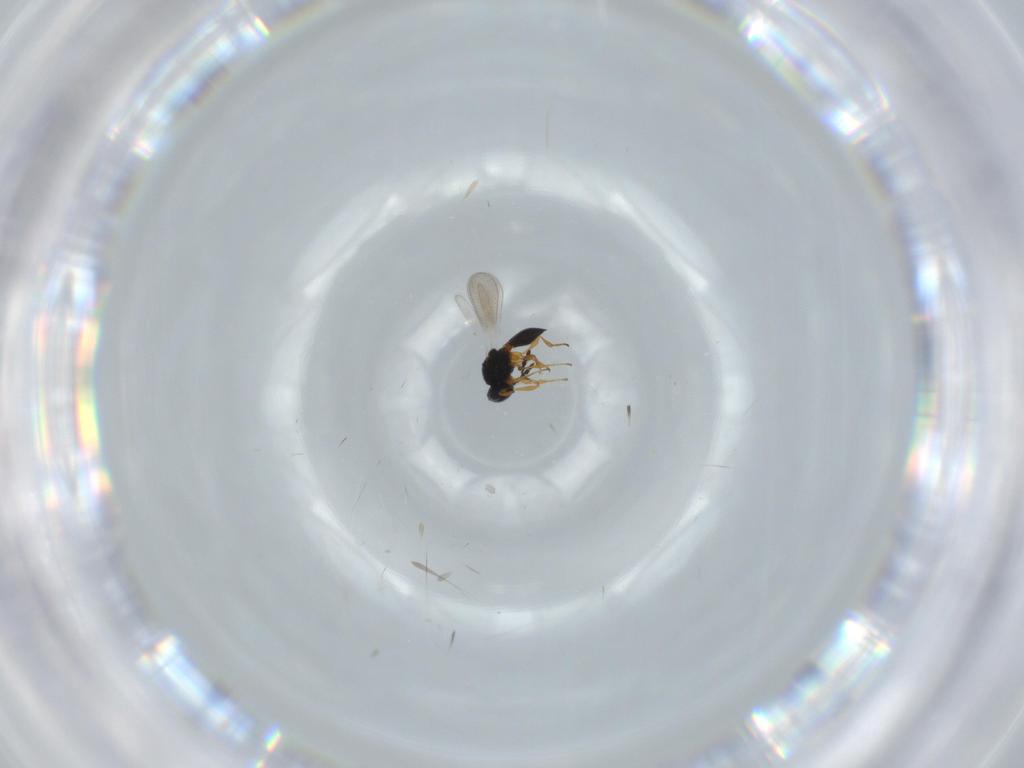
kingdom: Animalia
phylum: Arthropoda
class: Insecta
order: Hymenoptera
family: Platygastridae
